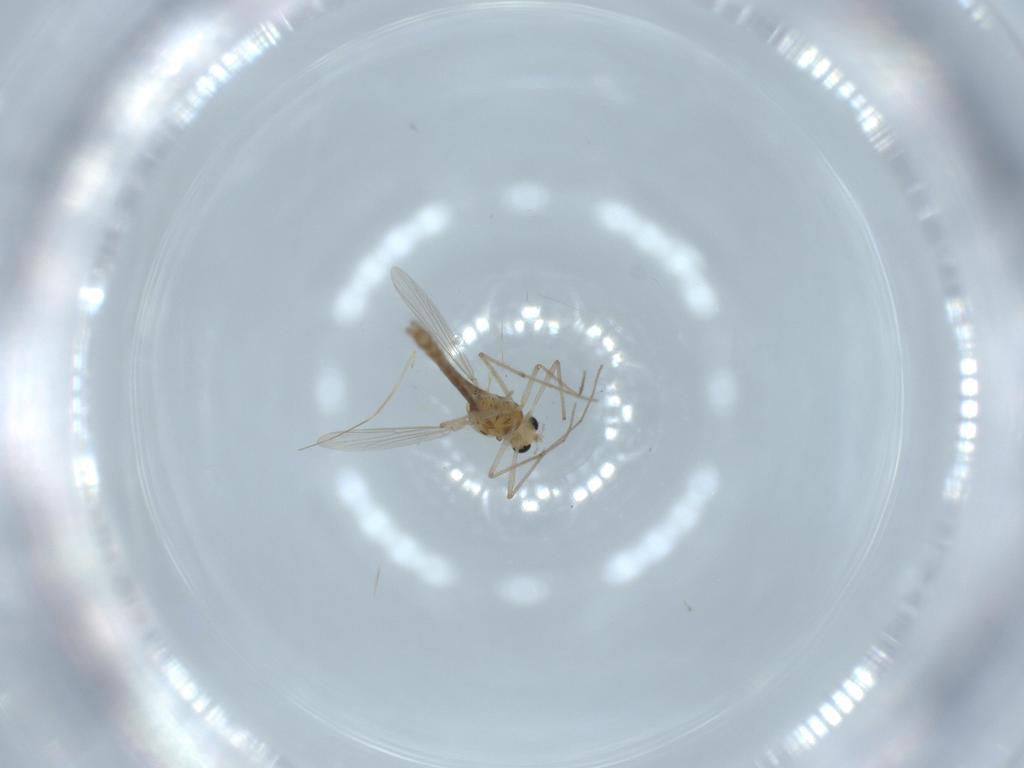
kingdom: Animalia
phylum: Arthropoda
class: Insecta
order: Diptera
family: Chironomidae
